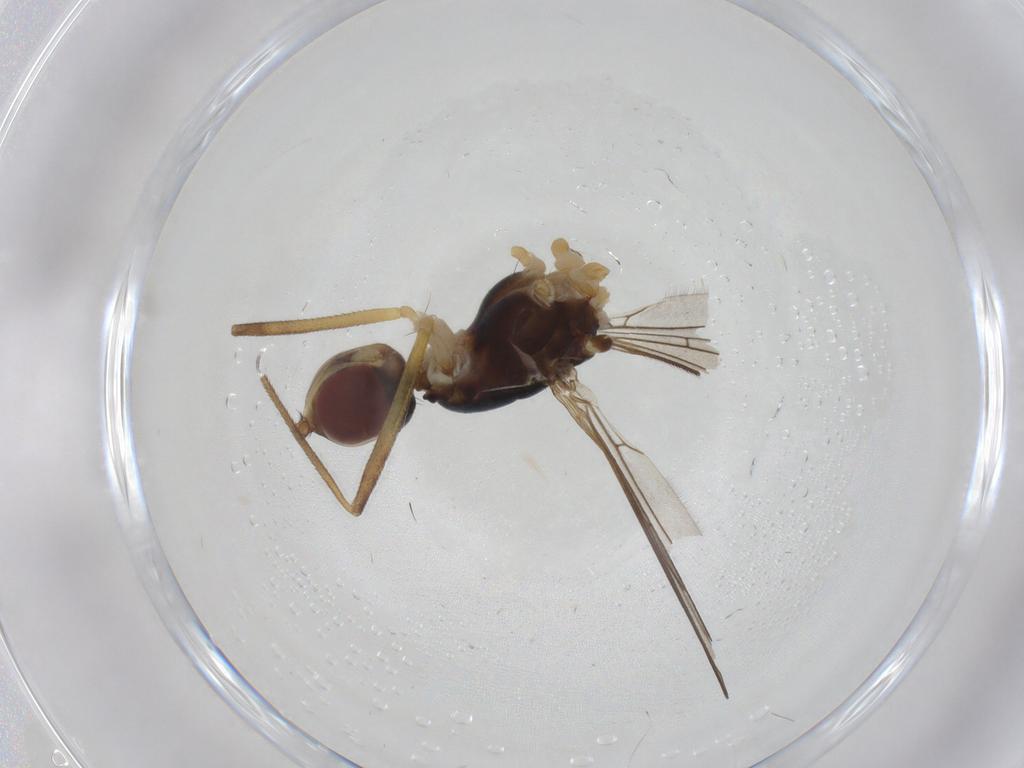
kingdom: Animalia
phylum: Arthropoda
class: Insecta
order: Diptera
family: Micropezidae
